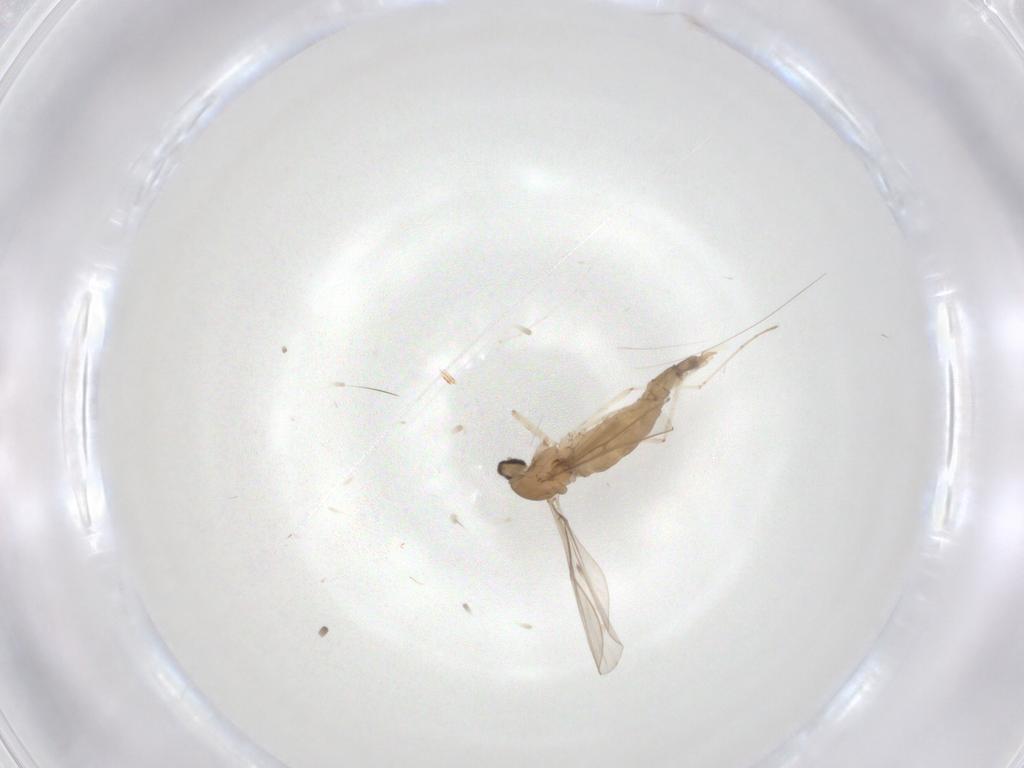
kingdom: Animalia
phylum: Arthropoda
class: Insecta
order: Diptera
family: Cecidomyiidae
